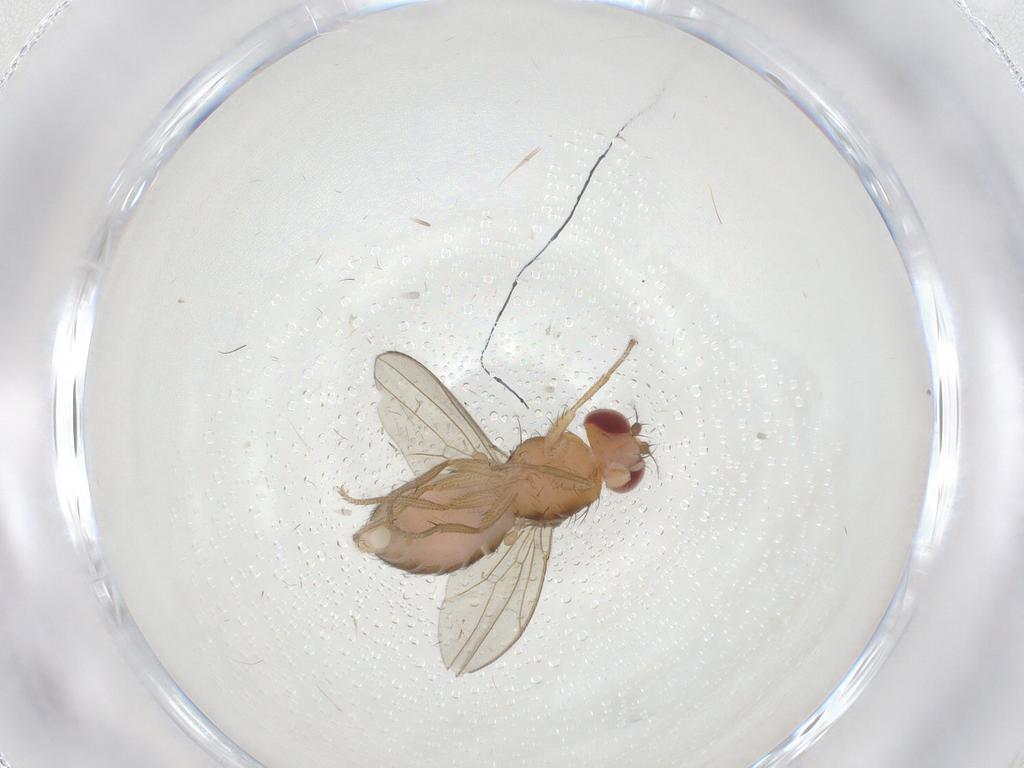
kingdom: Animalia
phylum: Arthropoda
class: Insecta
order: Diptera
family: Drosophilidae
